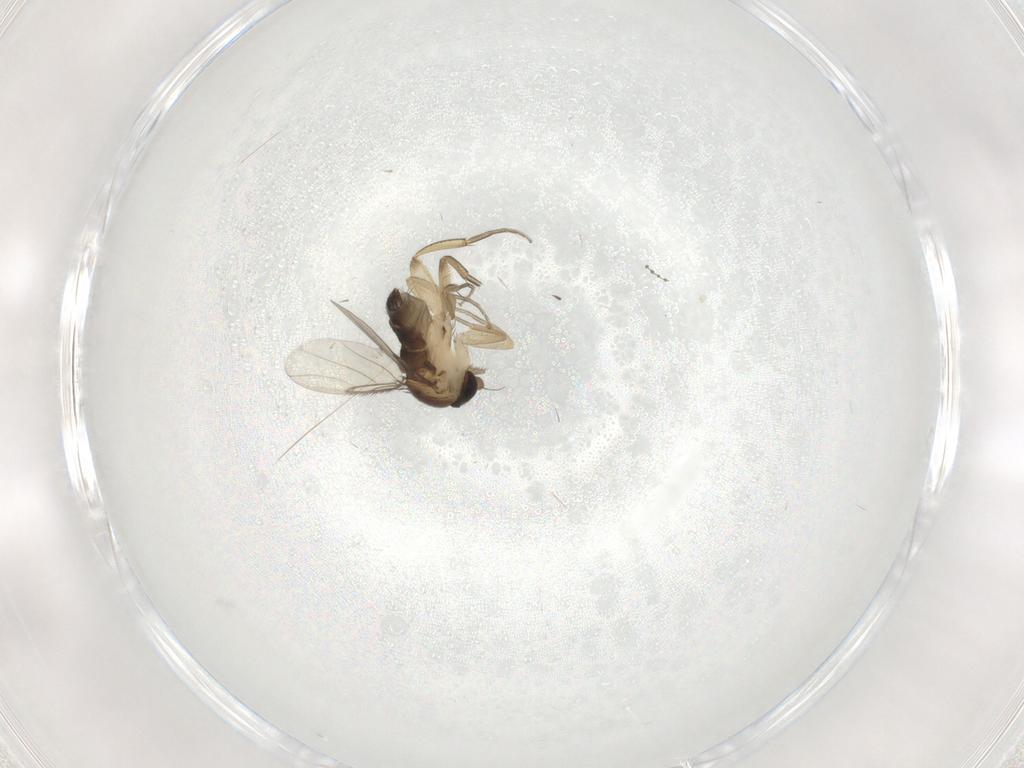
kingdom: Animalia
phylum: Arthropoda
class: Insecta
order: Diptera
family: Phoridae
